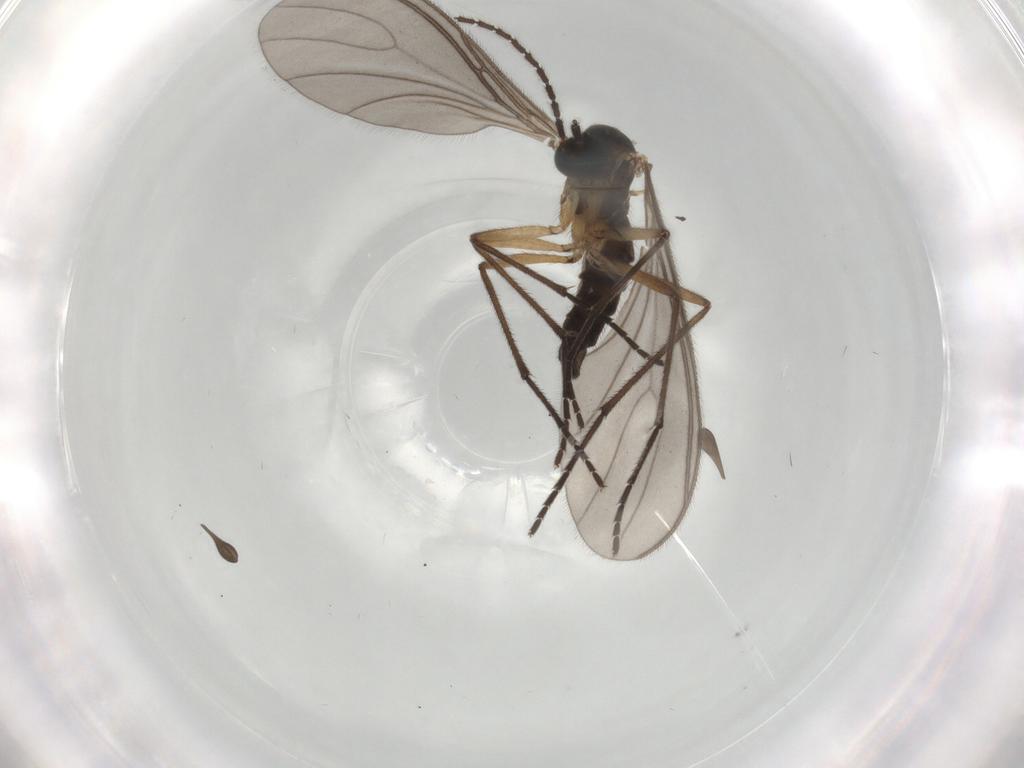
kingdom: Animalia
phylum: Arthropoda
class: Insecta
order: Diptera
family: Sciaridae
